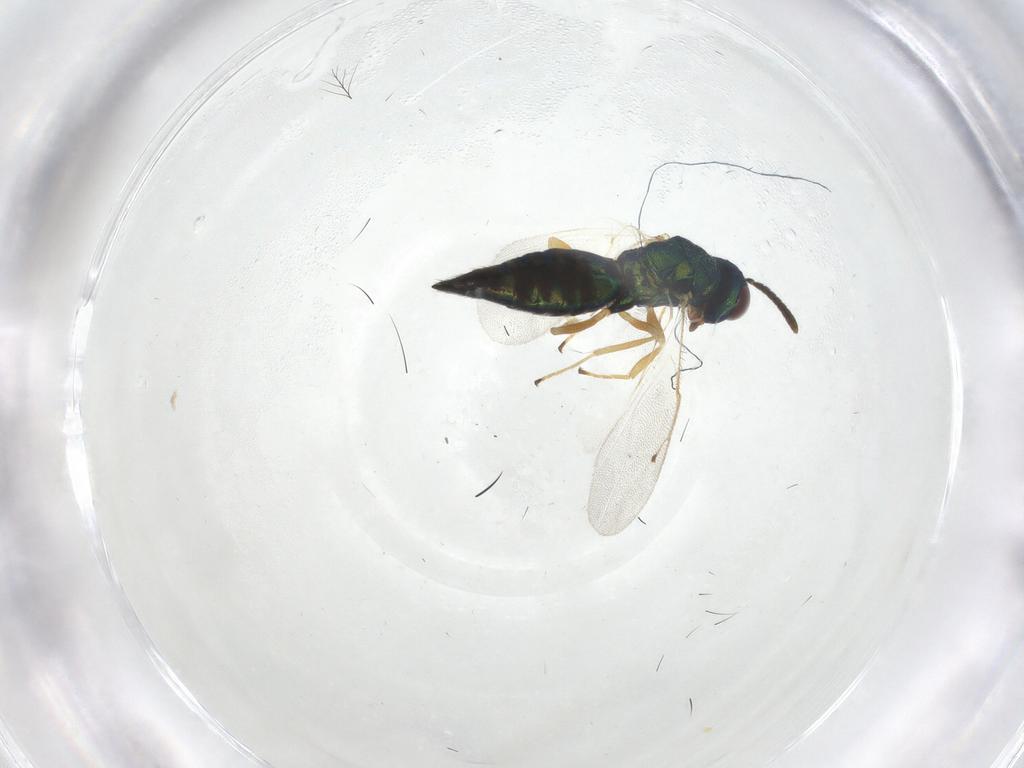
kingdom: Animalia
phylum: Arthropoda
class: Insecta
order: Hymenoptera
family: Pteromalidae
